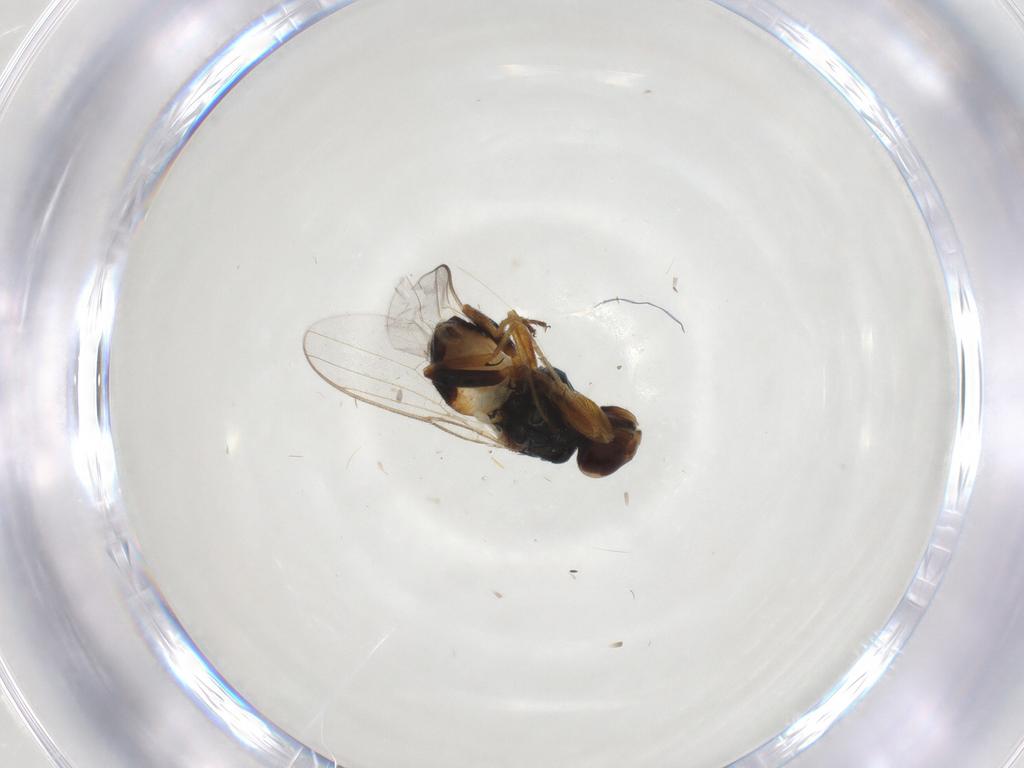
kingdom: Animalia
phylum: Arthropoda
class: Insecta
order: Diptera
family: Chloropidae
